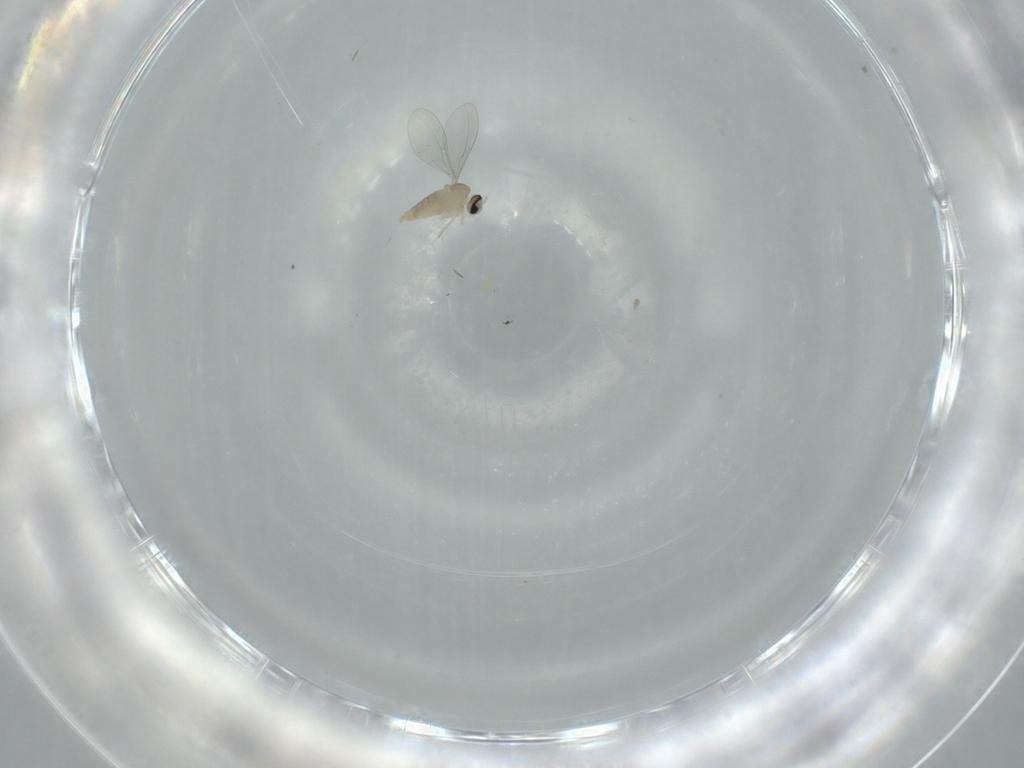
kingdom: Animalia
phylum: Arthropoda
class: Insecta
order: Diptera
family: Cecidomyiidae
